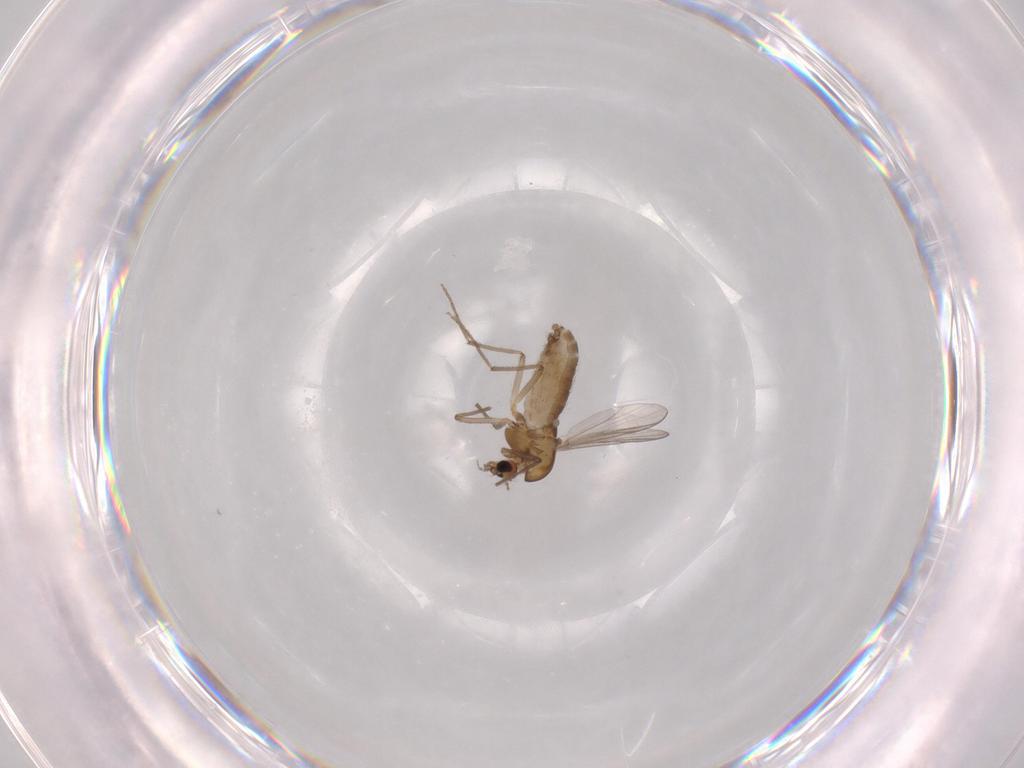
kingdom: Animalia
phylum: Arthropoda
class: Insecta
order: Diptera
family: Chironomidae
